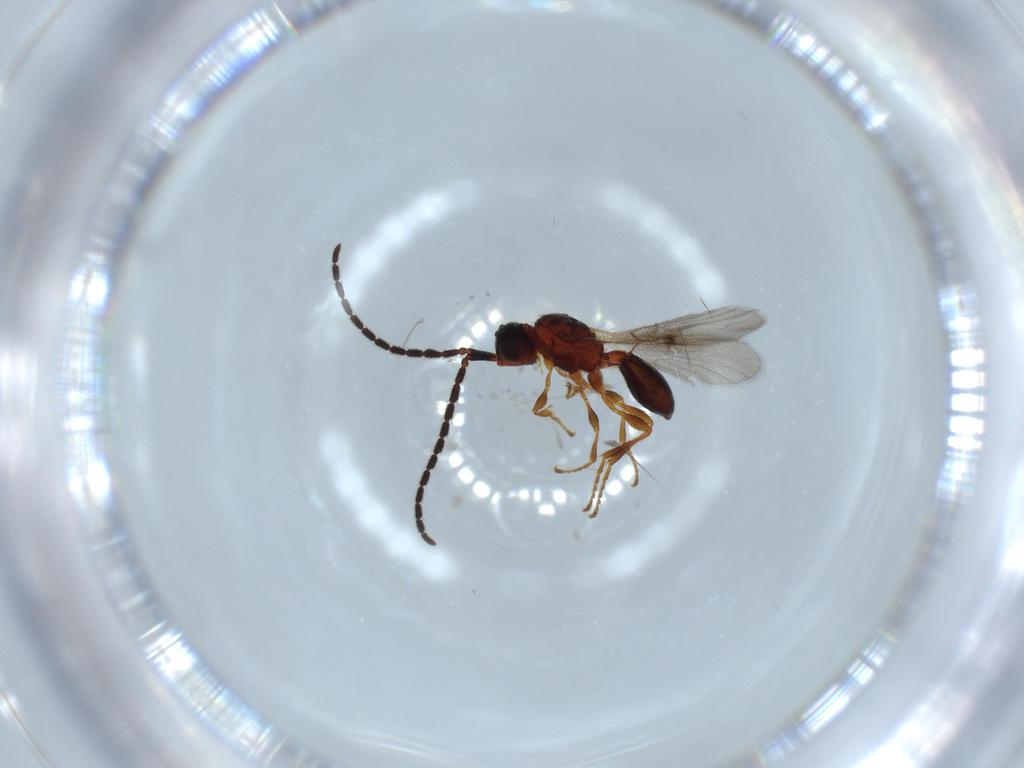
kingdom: Animalia
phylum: Arthropoda
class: Insecta
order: Hymenoptera
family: Diapriidae
